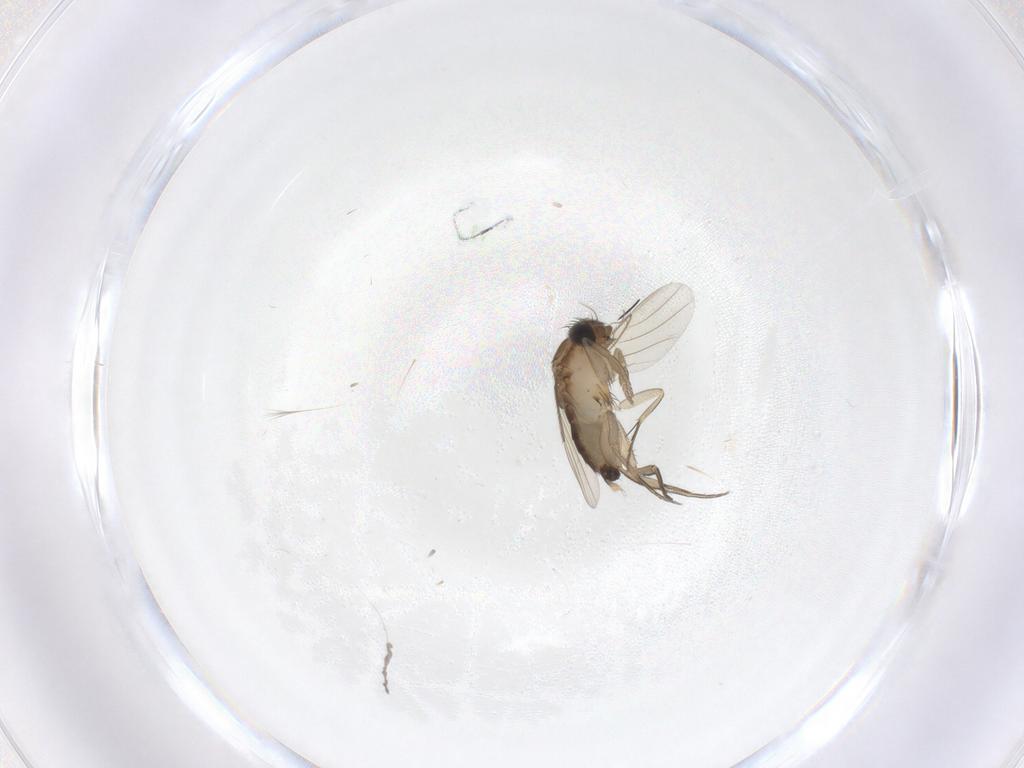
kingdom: Animalia
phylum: Arthropoda
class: Insecta
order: Diptera
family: Phoridae
